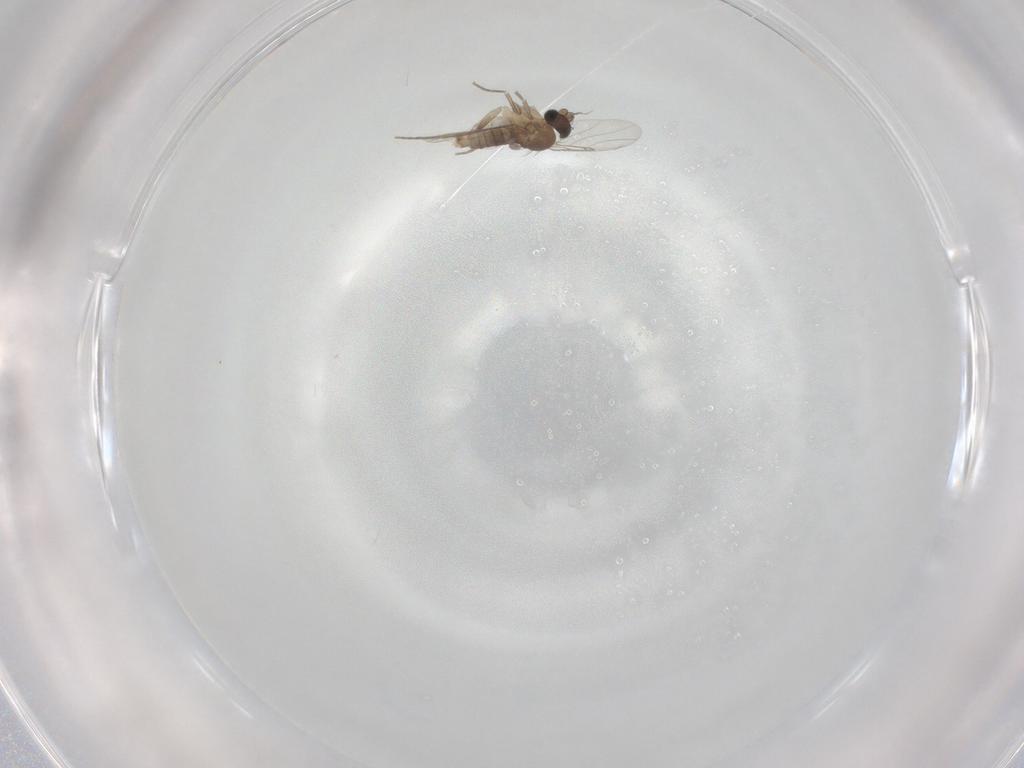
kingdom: Animalia
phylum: Arthropoda
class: Insecta
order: Diptera
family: Phoridae
